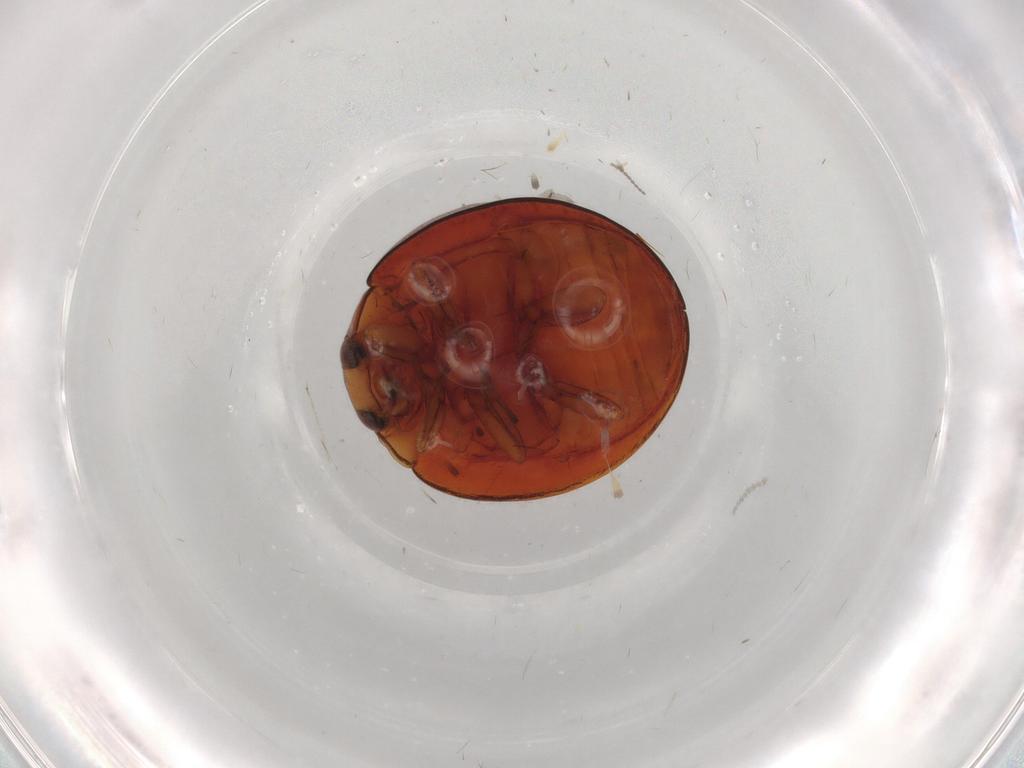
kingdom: Animalia
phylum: Arthropoda
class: Insecta
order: Coleoptera
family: Coccinellidae
